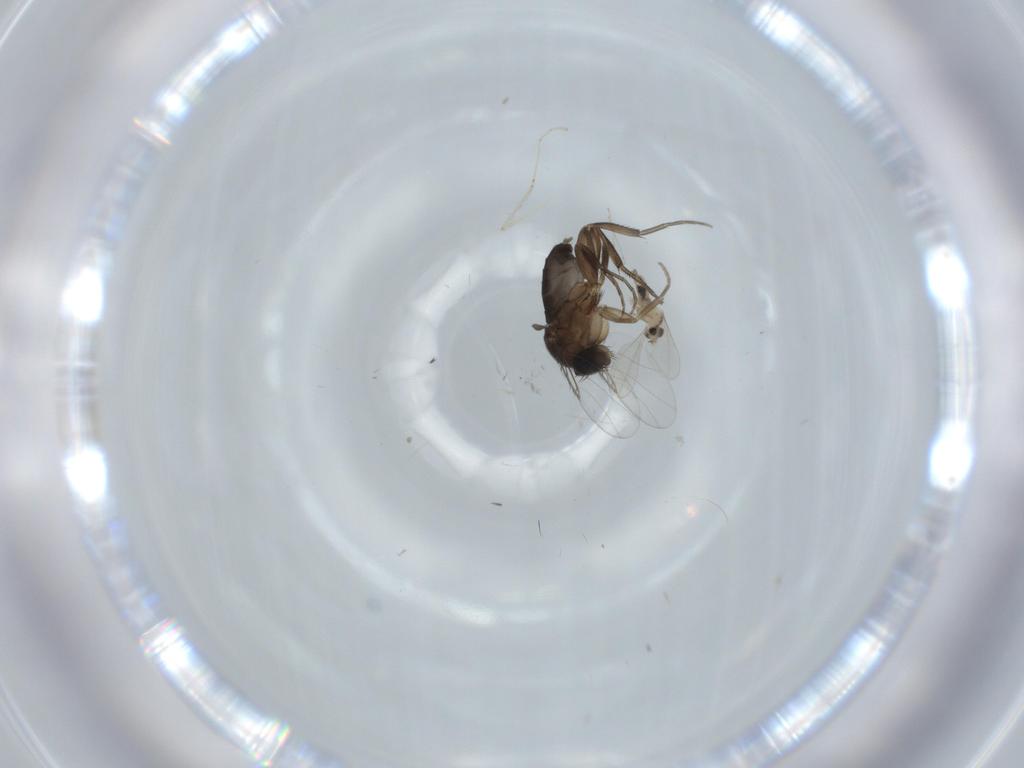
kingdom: Animalia
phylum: Arthropoda
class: Insecta
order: Diptera
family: Phoridae
